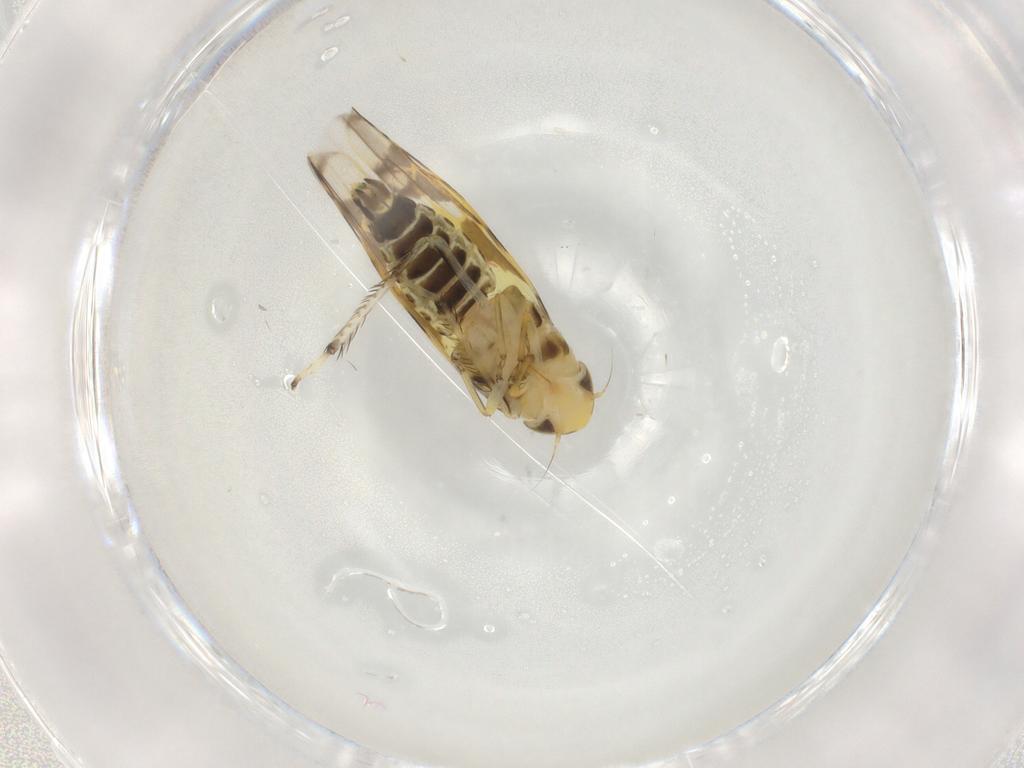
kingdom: Animalia
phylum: Arthropoda
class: Insecta
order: Hemiptera
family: Cicadellidae
